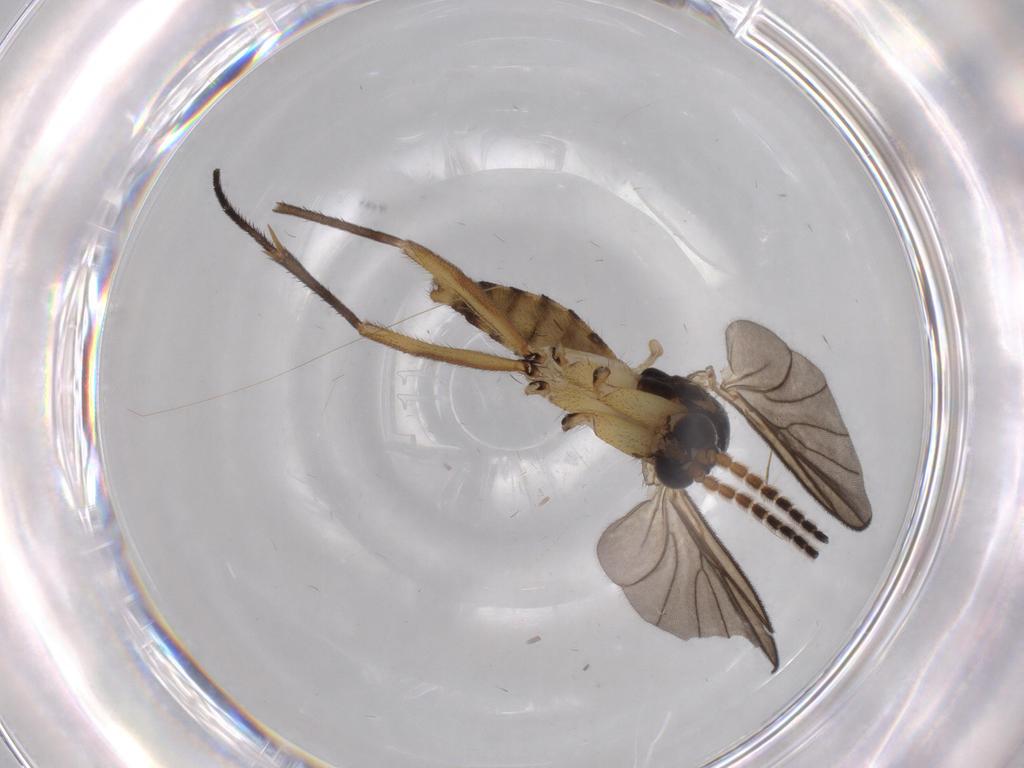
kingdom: Animalia
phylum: Arthropoda
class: Insecta
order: Diptera
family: Mycetophilidae
